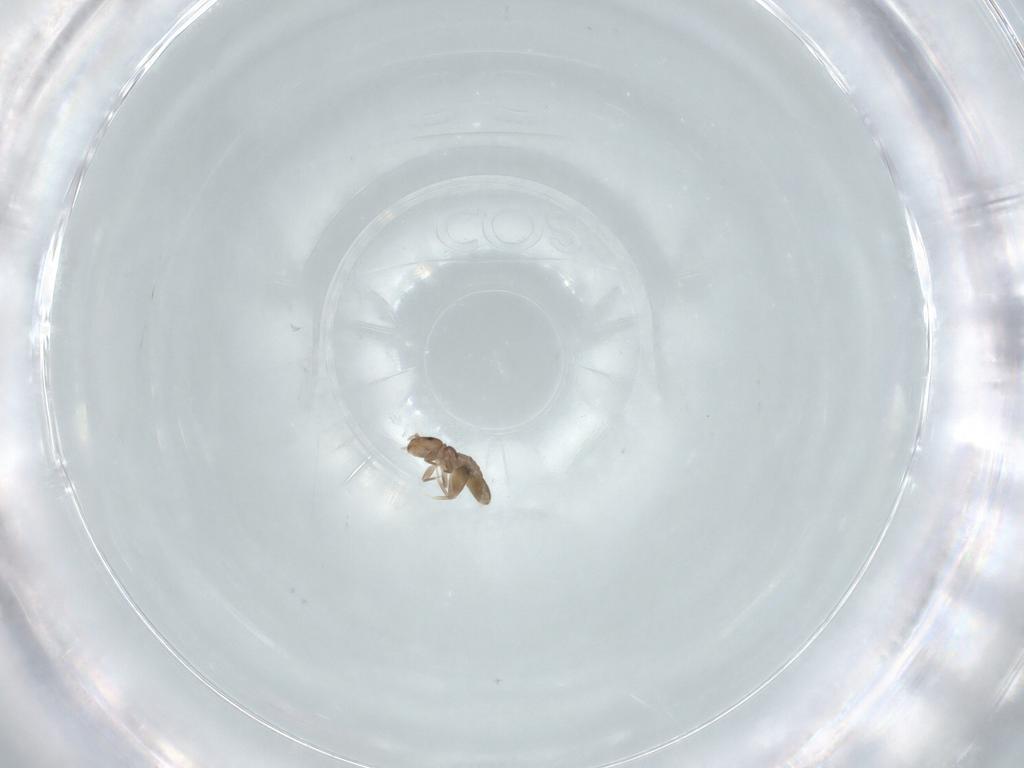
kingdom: Animalia
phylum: Arthropoda
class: Insecta
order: Psocodea
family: Liposcelididae
